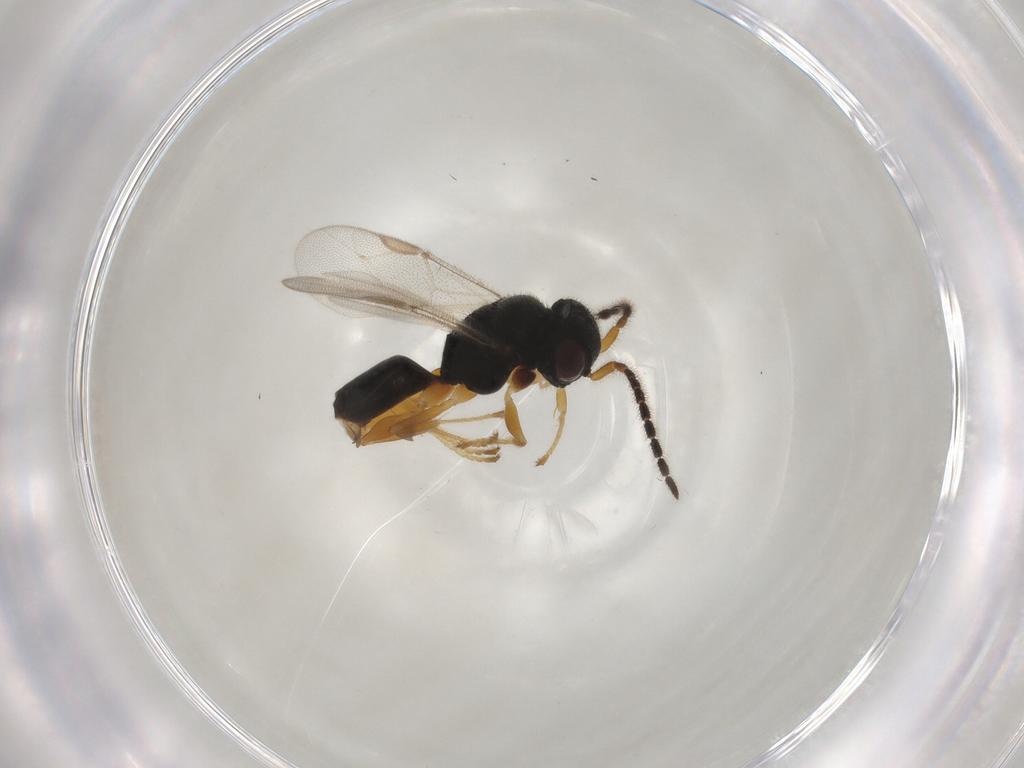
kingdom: Animalia
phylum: Arthropoda
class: Insecta
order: Hymenoptera
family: Dryinidae
